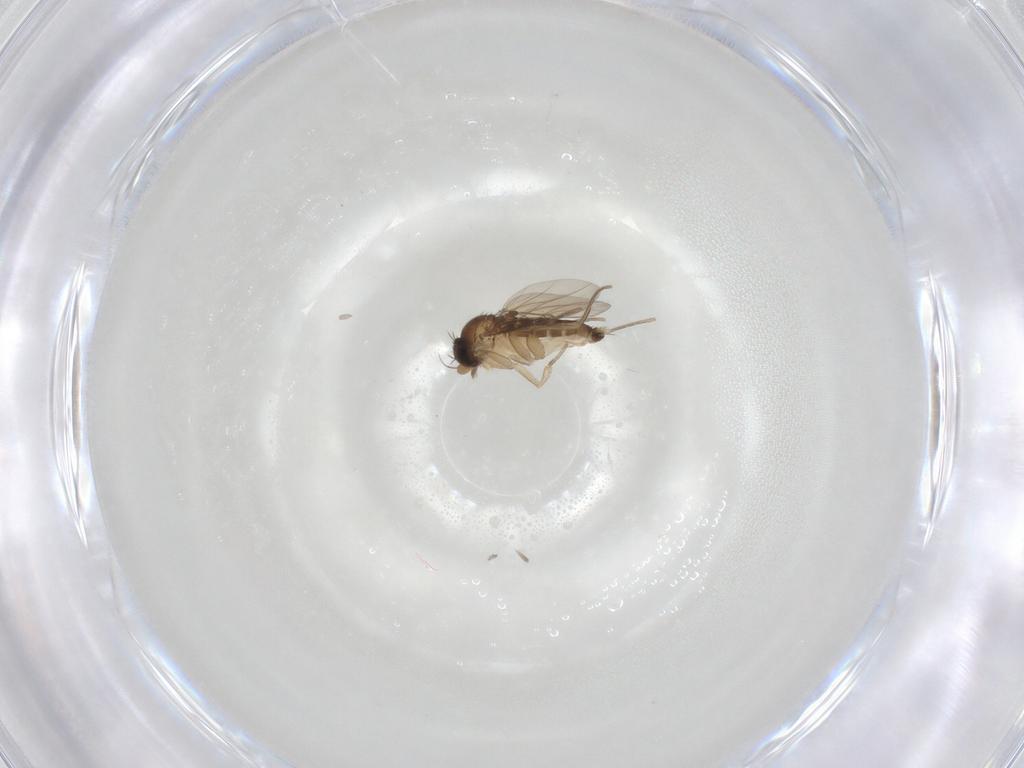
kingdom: Animalia
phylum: Arthropoda
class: Insecta
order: Diptera
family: Phoridae
